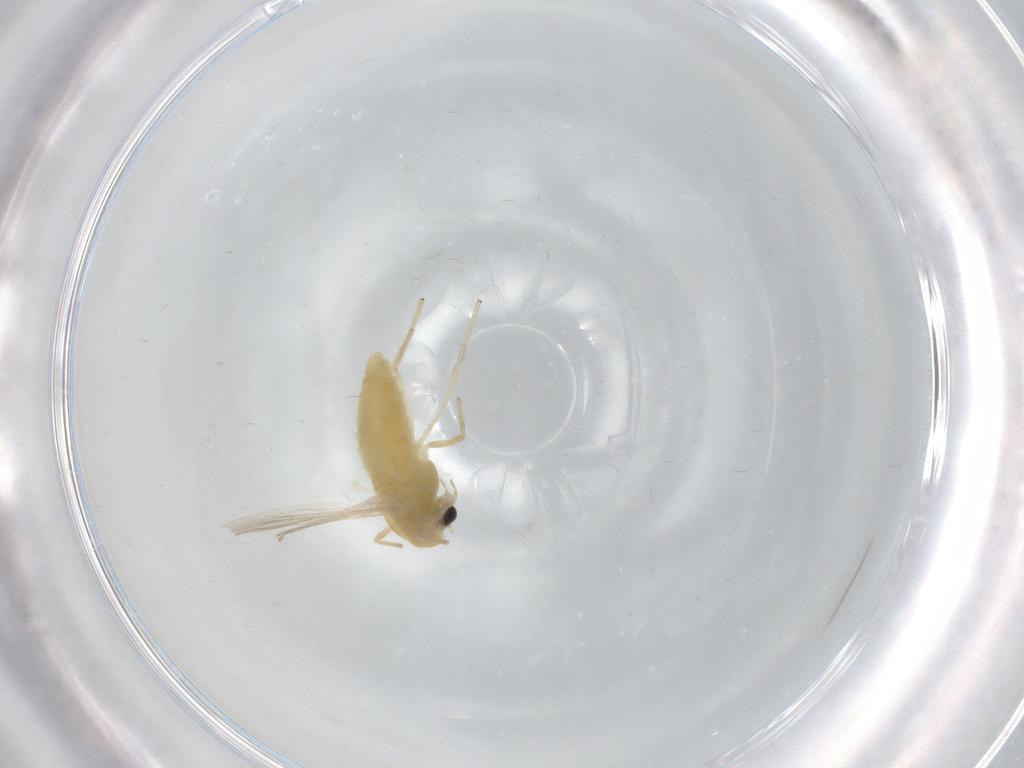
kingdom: Animalia
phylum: Arthropoda
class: Insecta
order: Diptera
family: Chironomidae
